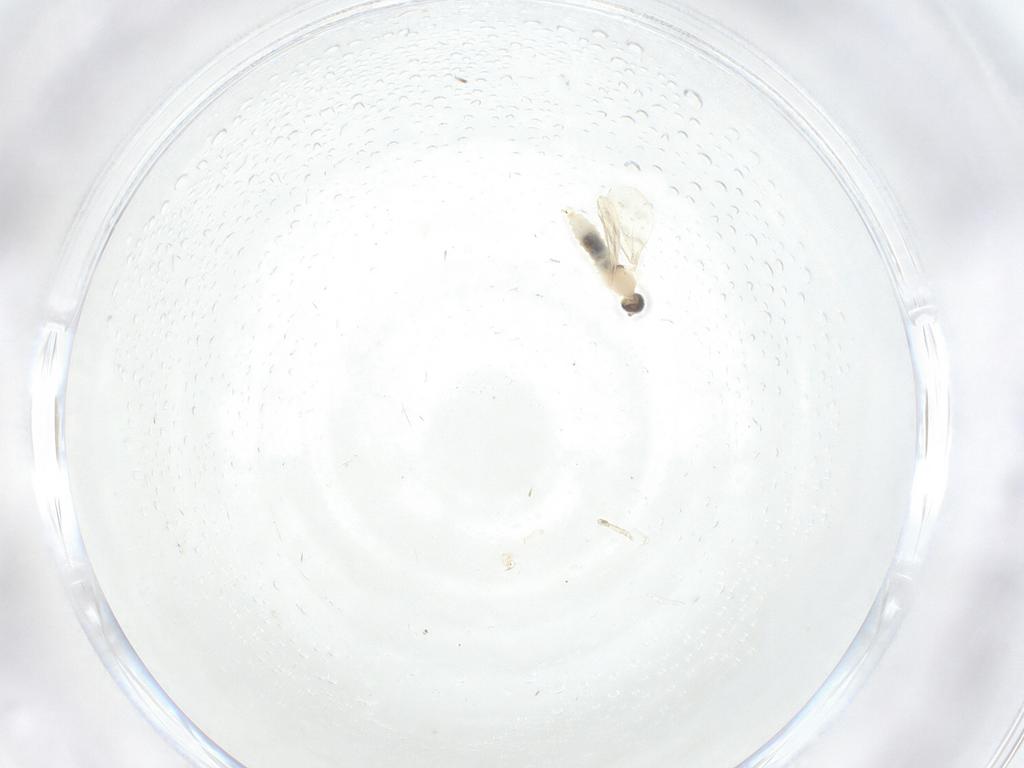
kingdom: Animalia
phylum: Arthropoda
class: Insecta
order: Diptera
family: Cecidomyiidae
